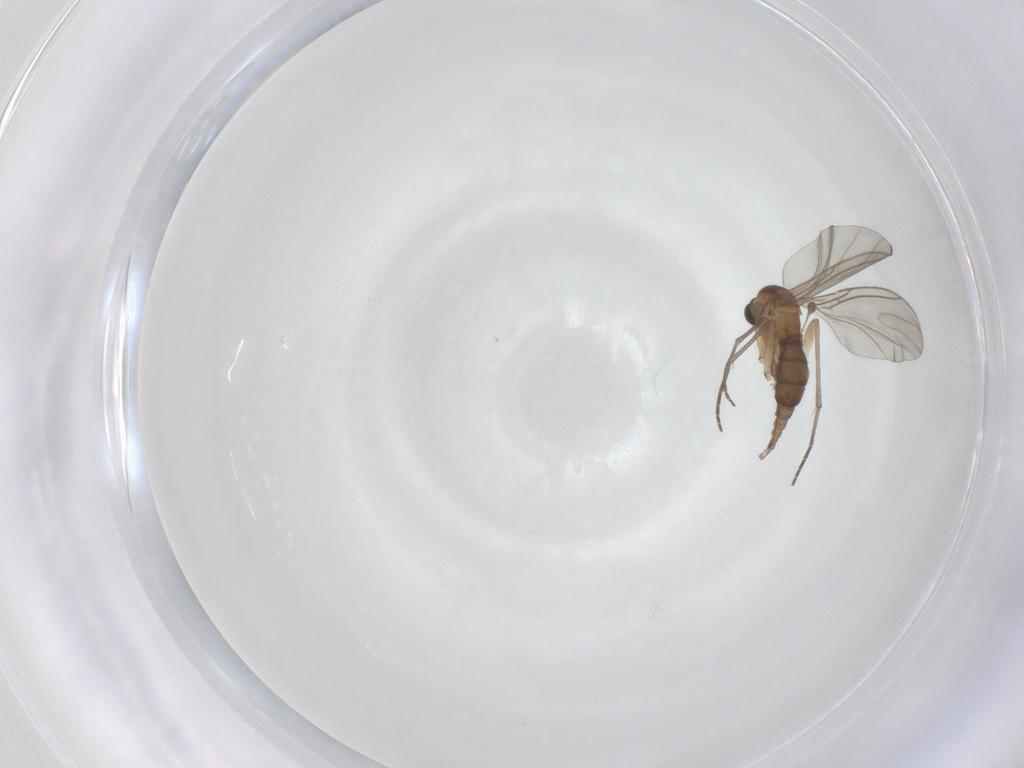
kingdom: Animalia
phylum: Arthropoda
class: Insecta
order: Diptera
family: Sciaridae
